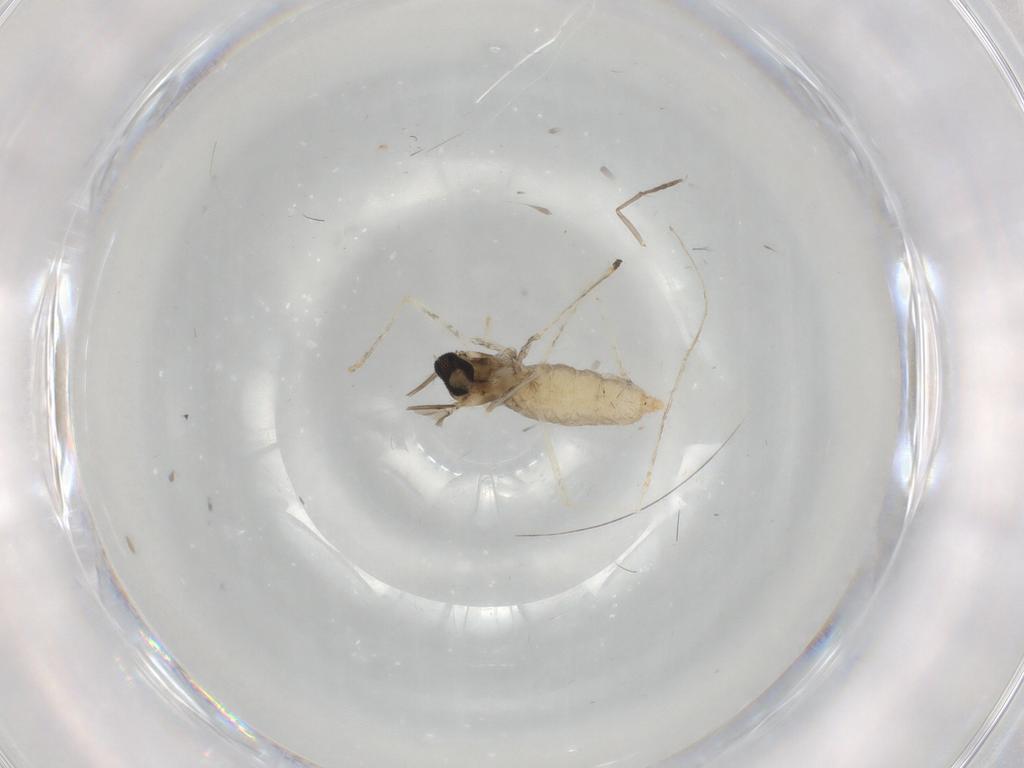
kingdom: Animalia
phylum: Arthropoda
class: Insecta
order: Diptera
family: Cecidomyiidae
